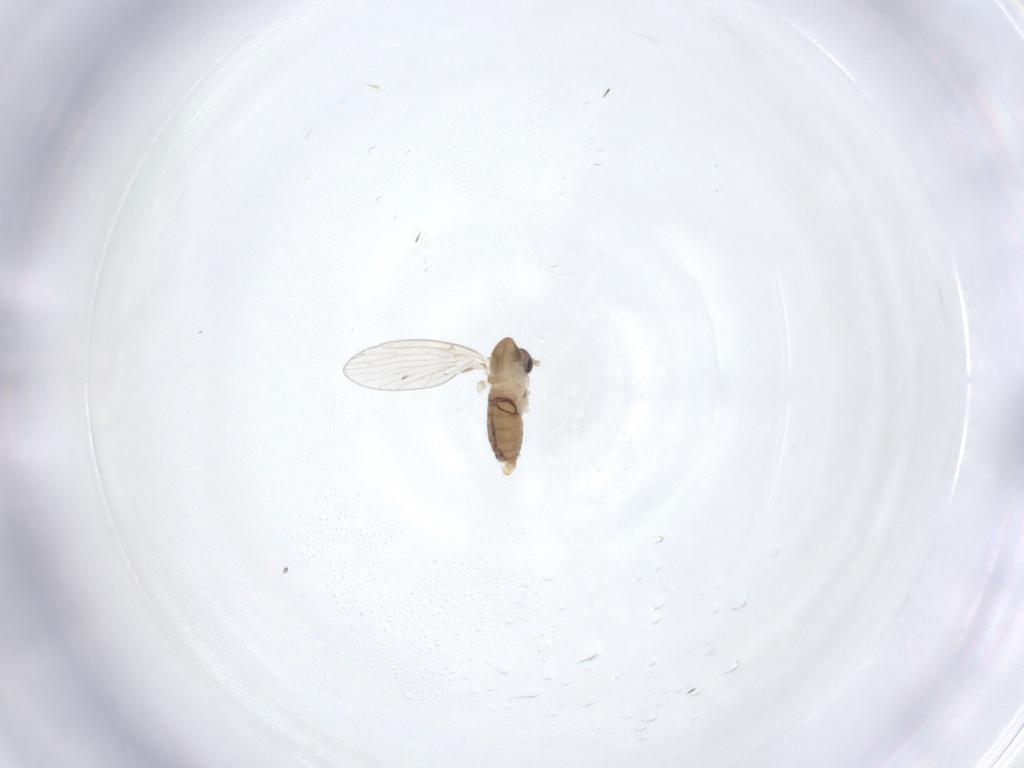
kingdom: Animalia
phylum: Arthropoda
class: Insecta
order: Diptera
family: Psychodidae
